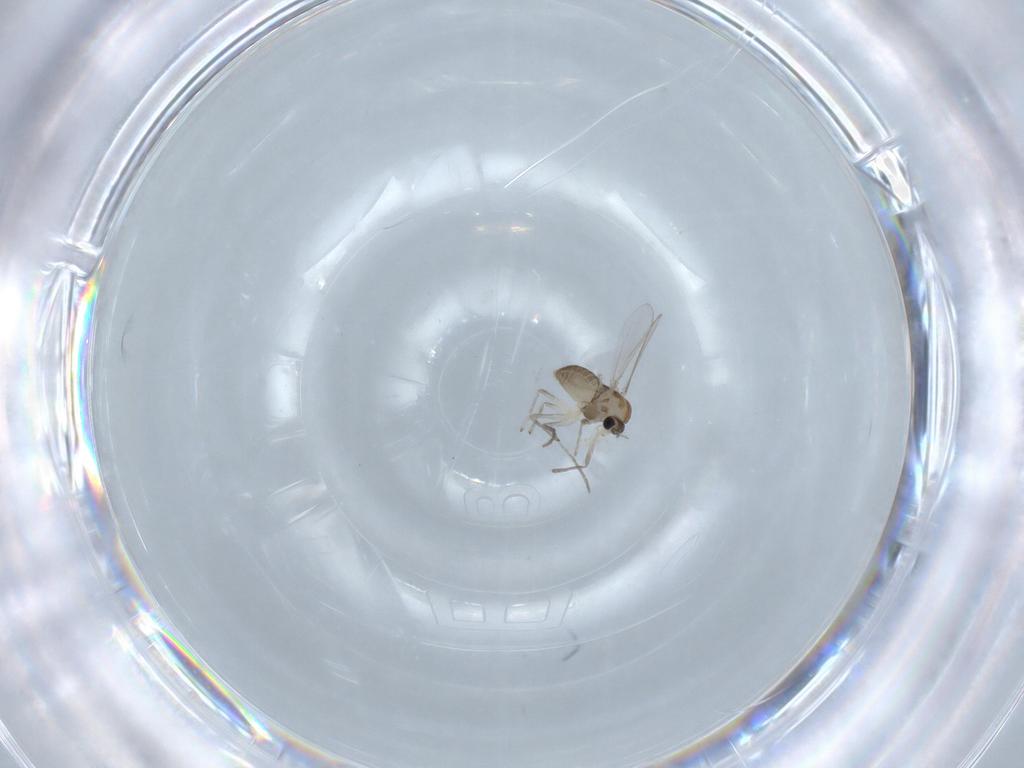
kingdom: Animalia
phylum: Arthropoda
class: Insecta
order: Diptera
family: Chironomidae
